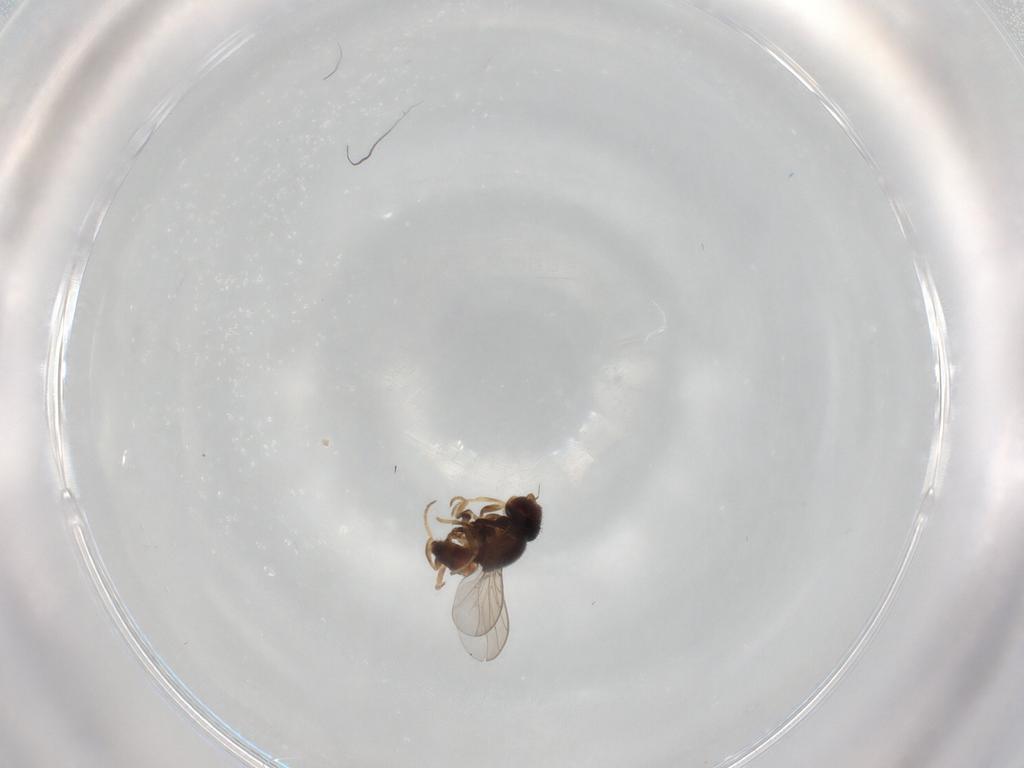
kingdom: Animalia
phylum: Arthropoda
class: Insecta
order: Diptera
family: Chloropidae
